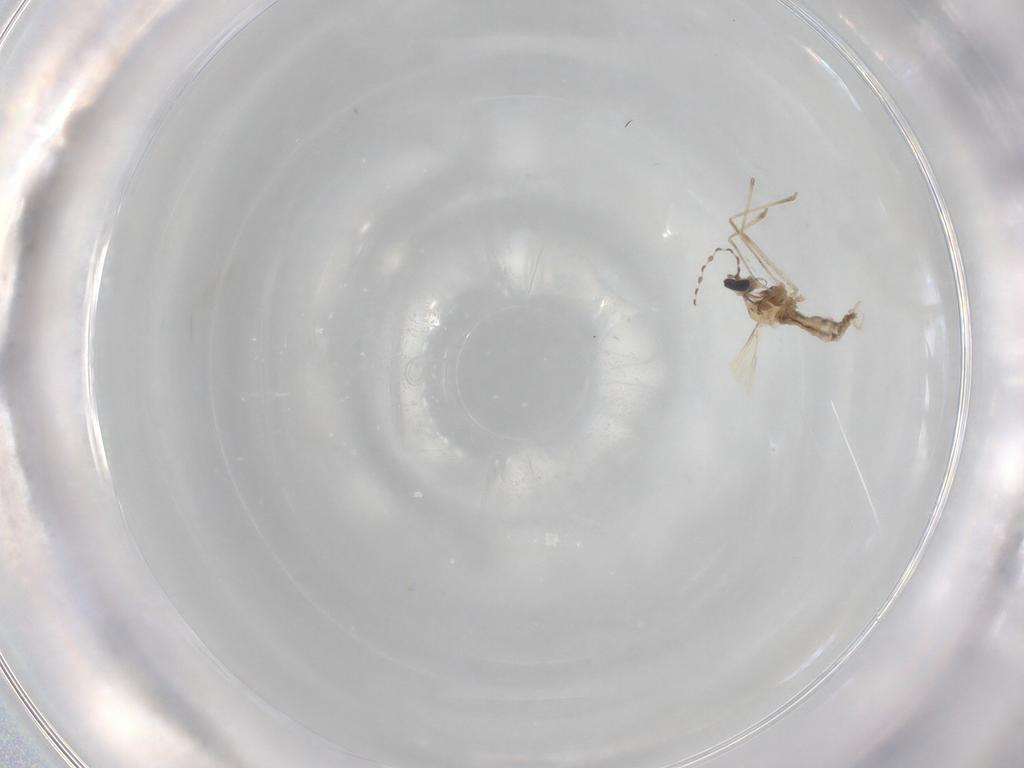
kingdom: Animalia
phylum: Arthropoda
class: Insecta
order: Diptera
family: Cecidomyiidae
